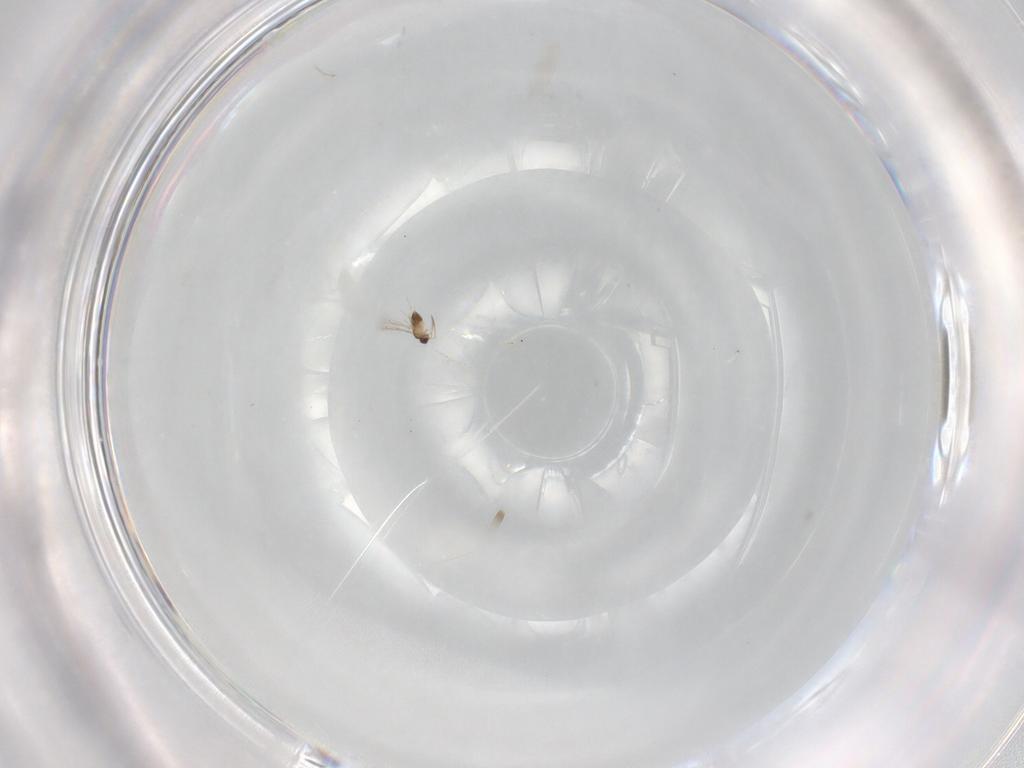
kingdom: Animalia
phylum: Arthropoda
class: Insecta
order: Hymenoptera
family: Mymaridae
